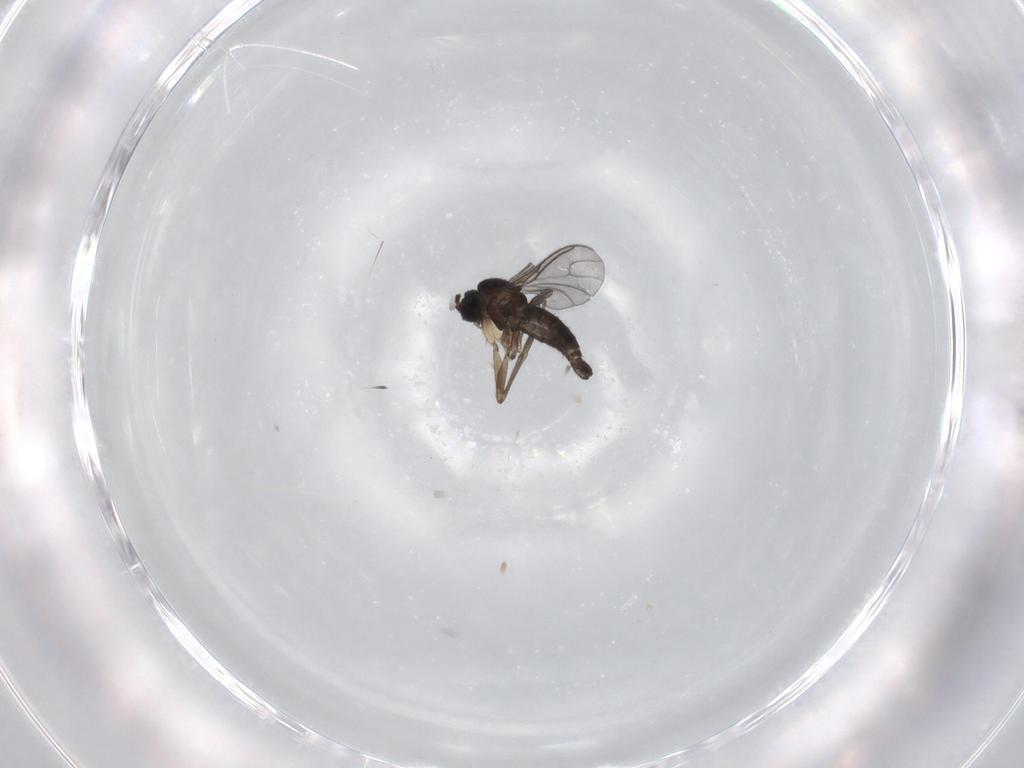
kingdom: Animalia
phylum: Arthropoda
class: Insecta
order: Diptera
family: Sciaridae
